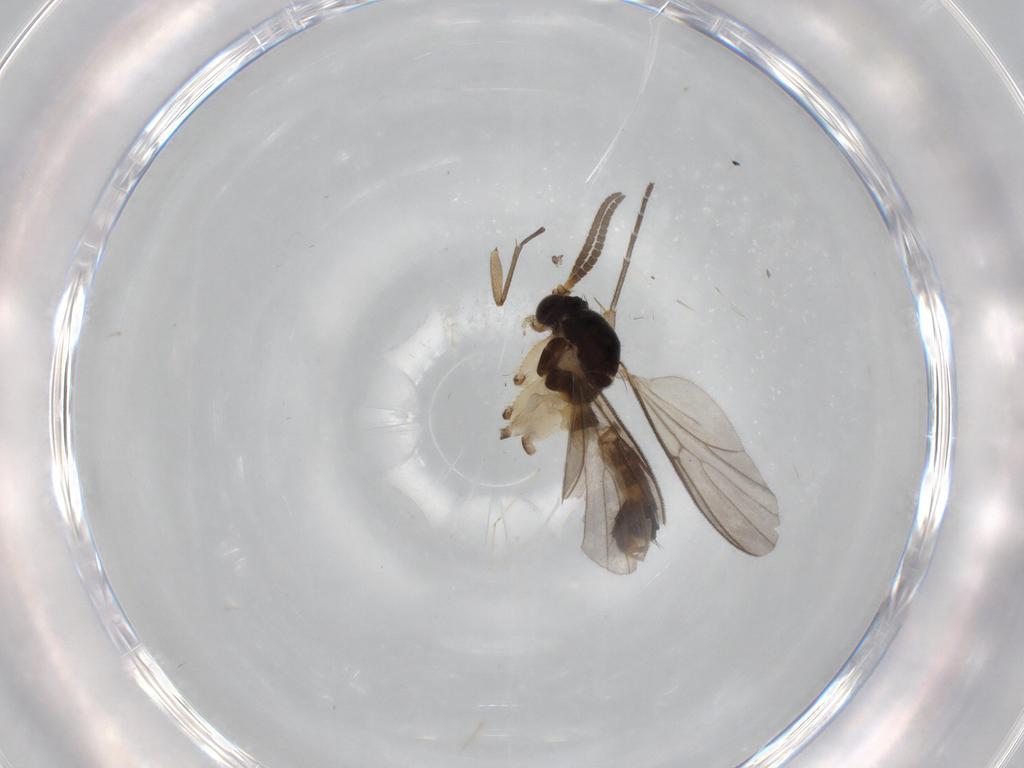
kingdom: Animalia
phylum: Arthropoda
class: Insecta
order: Diptera
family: Mycetophilidae
